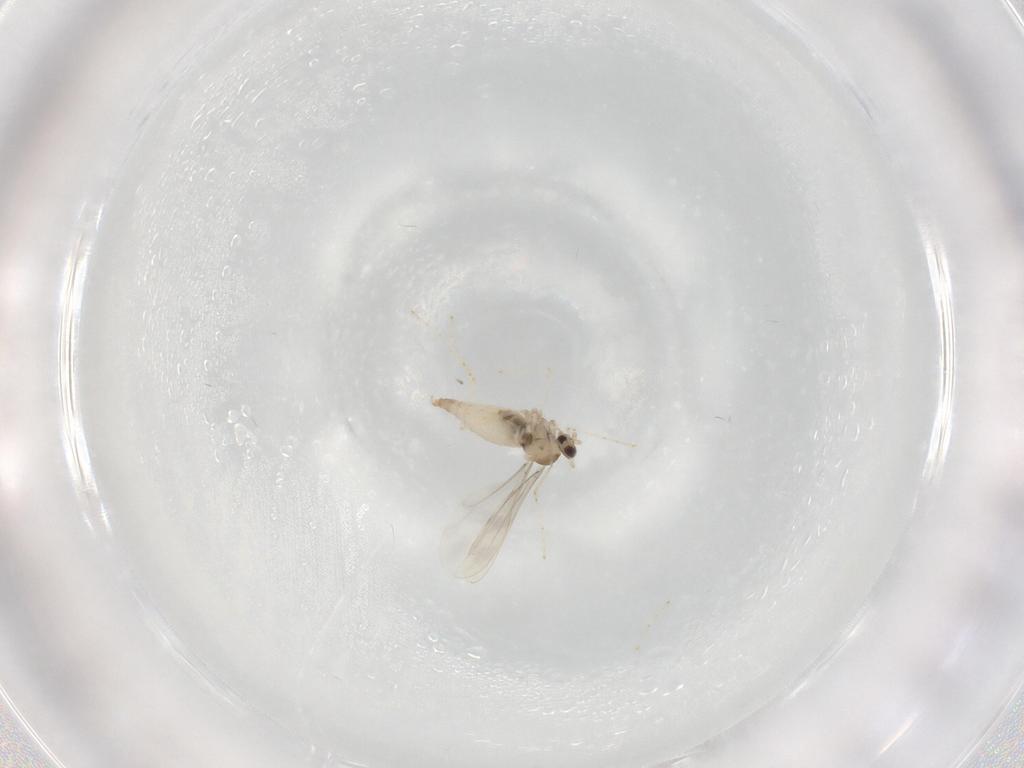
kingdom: Animalia
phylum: Arthropoda
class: Insecta
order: Diptera
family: Cecidomyiidae
